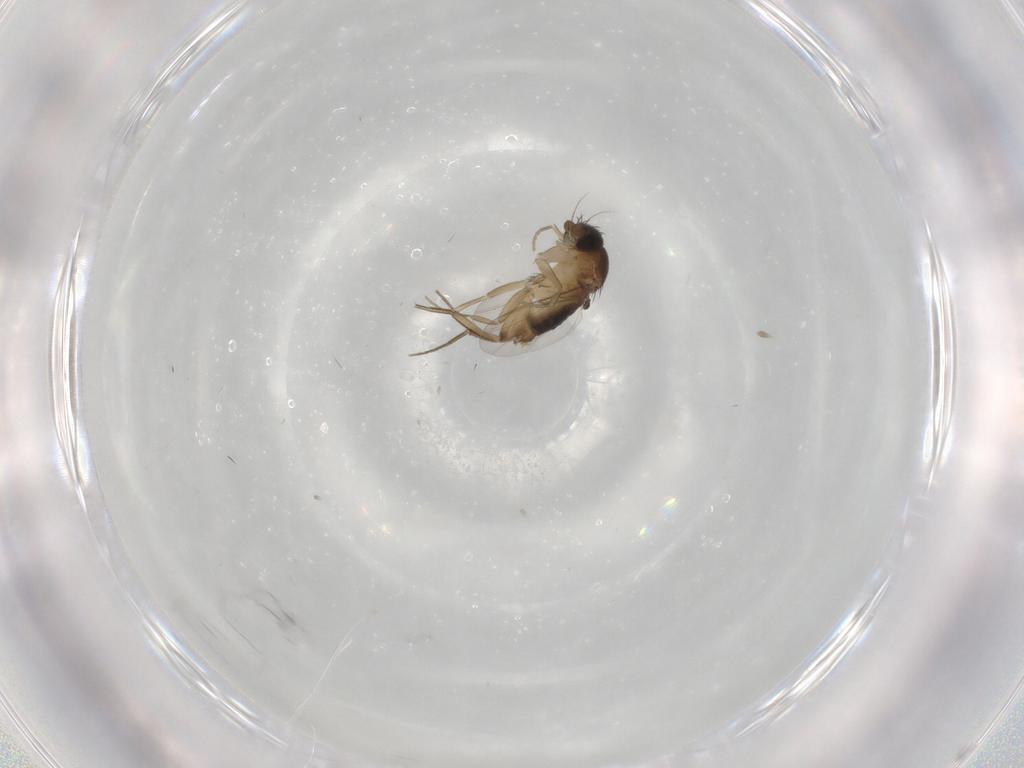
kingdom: Animalia
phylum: Arthropoda
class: Insecta
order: Diptera
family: Phoridae
